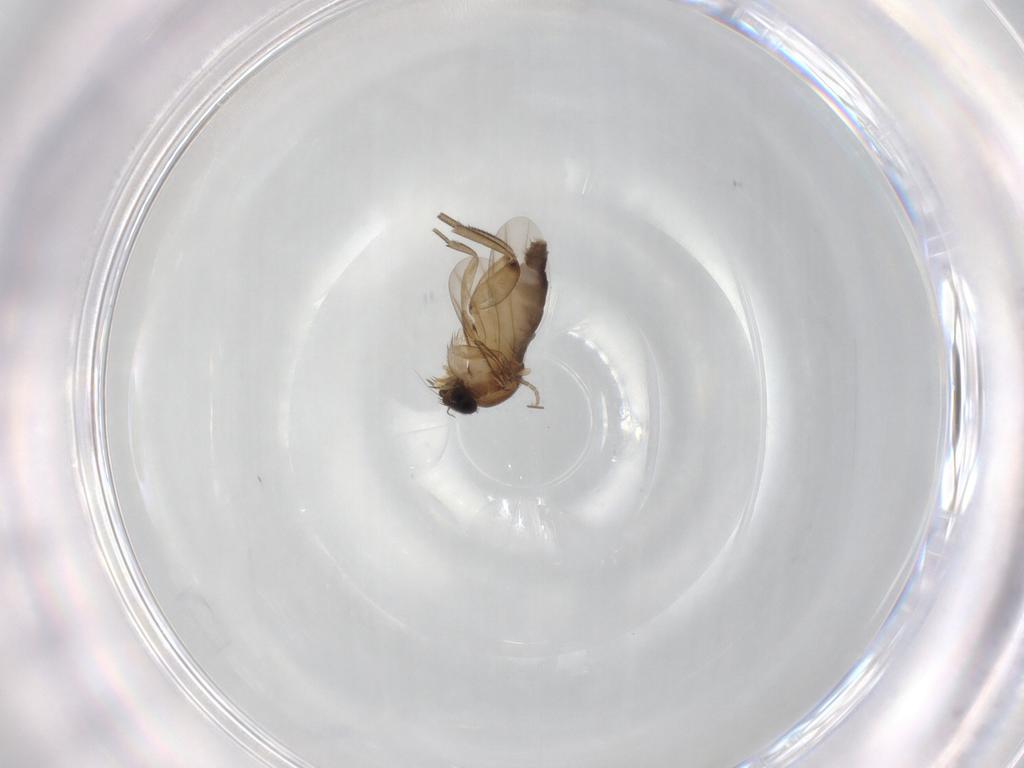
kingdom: Animalia
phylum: Arthropoda
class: Insecta
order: Diptera
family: Phoridae
